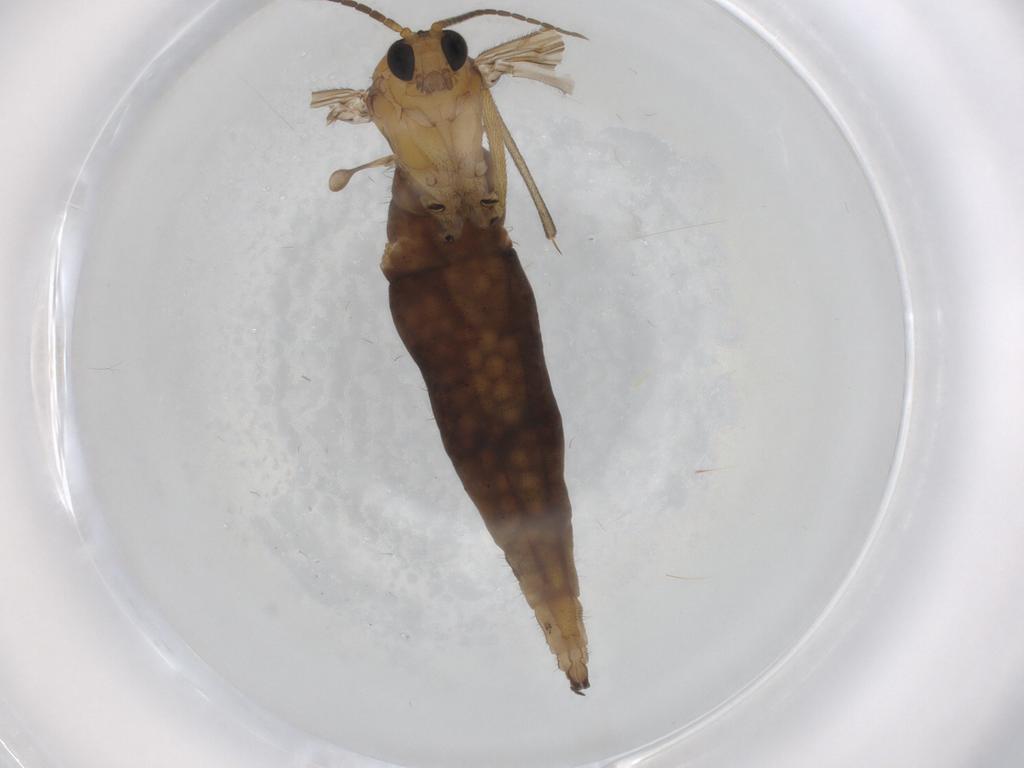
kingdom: Animalia
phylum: Arthropoda
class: Insecta
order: Diptera
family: Sciaridae
